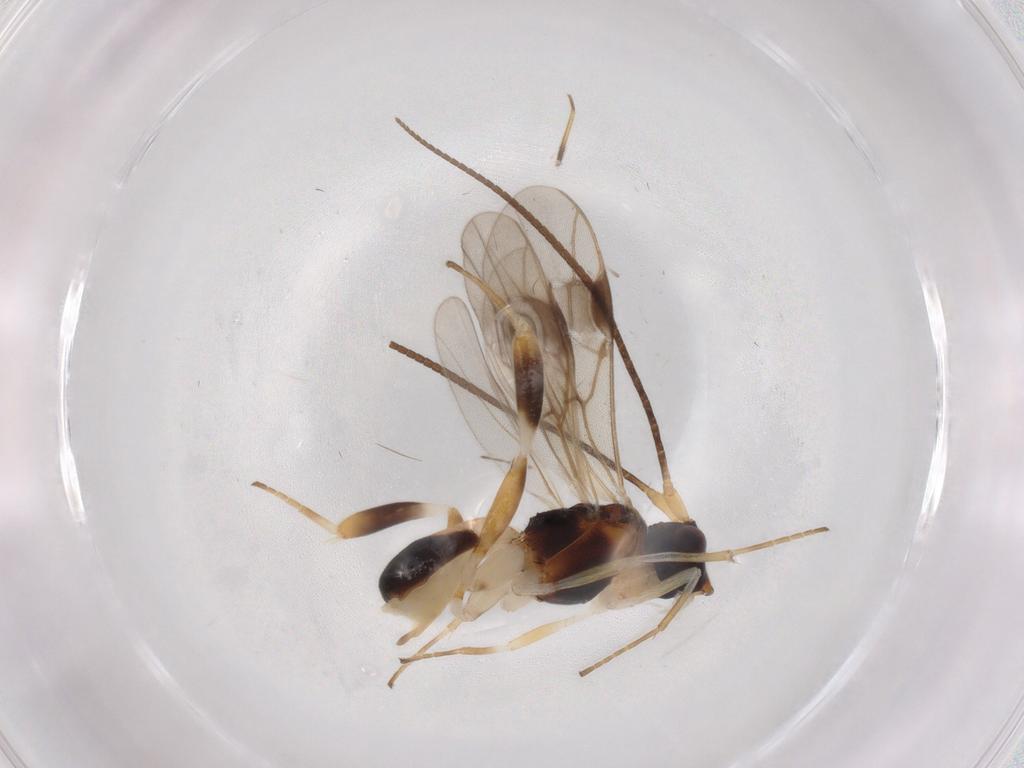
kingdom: Animalia
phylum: Arthropoda
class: Insecta
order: Hymenoptera
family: Braconidae
